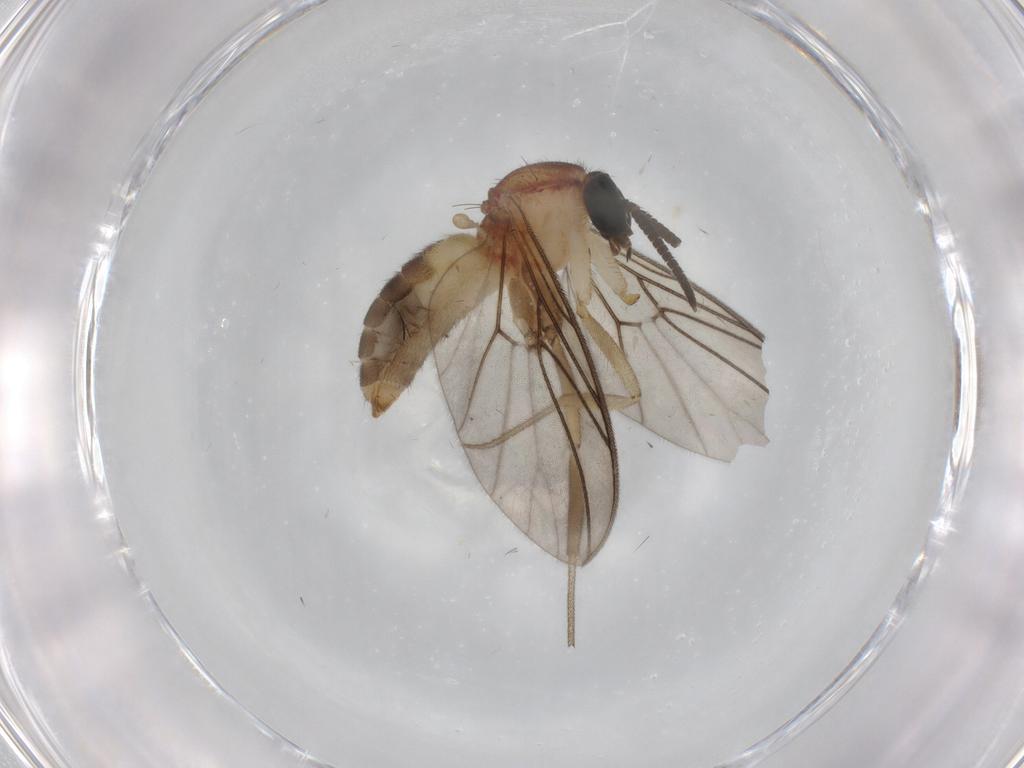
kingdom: Animalia
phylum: Arthropoda
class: Insecta
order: Diptera
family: Anisopodidae
